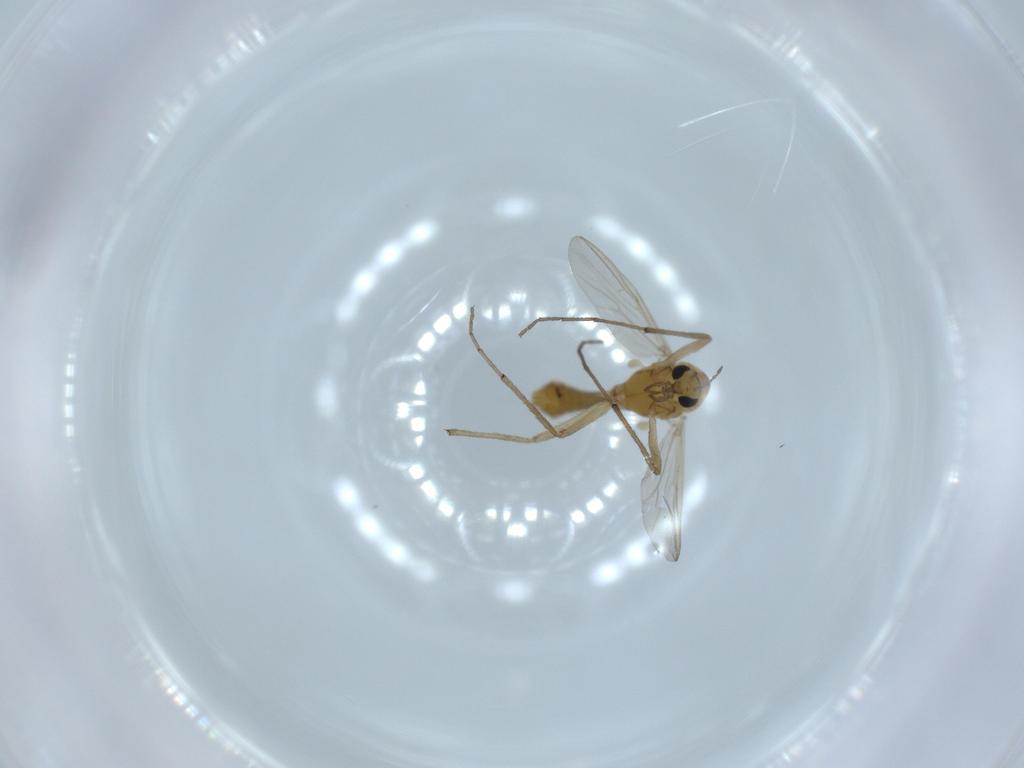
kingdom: Animalia
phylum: Arthropoda
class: Insecta
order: Diptera
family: Chironomidae
